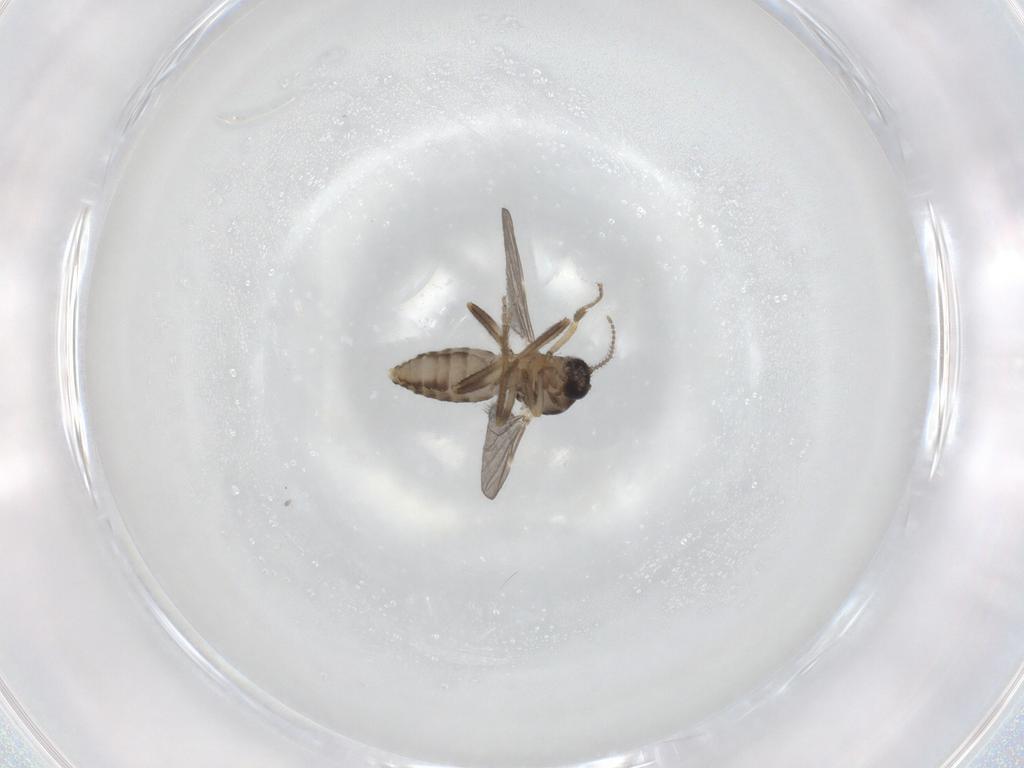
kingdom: Animalia
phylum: Arthropoda
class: Insecta
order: Diptera
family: Ceratopogonidae
